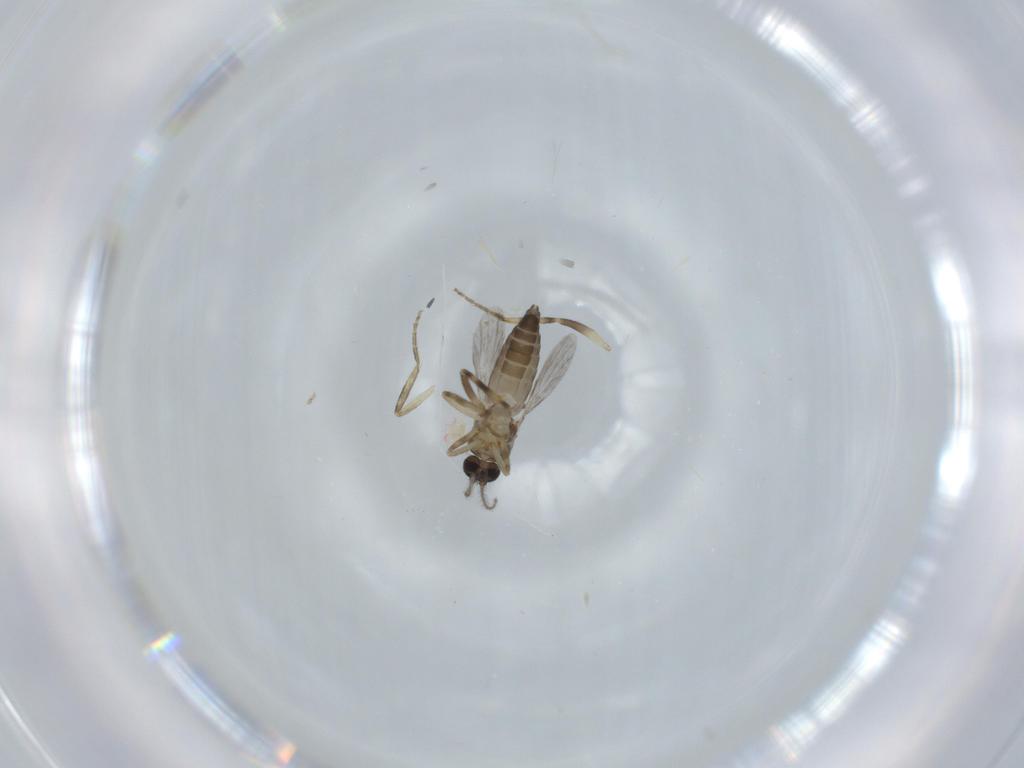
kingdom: Animalia
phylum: Arthropoda
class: Insecta
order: Diptera
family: Ceratopogonidae
